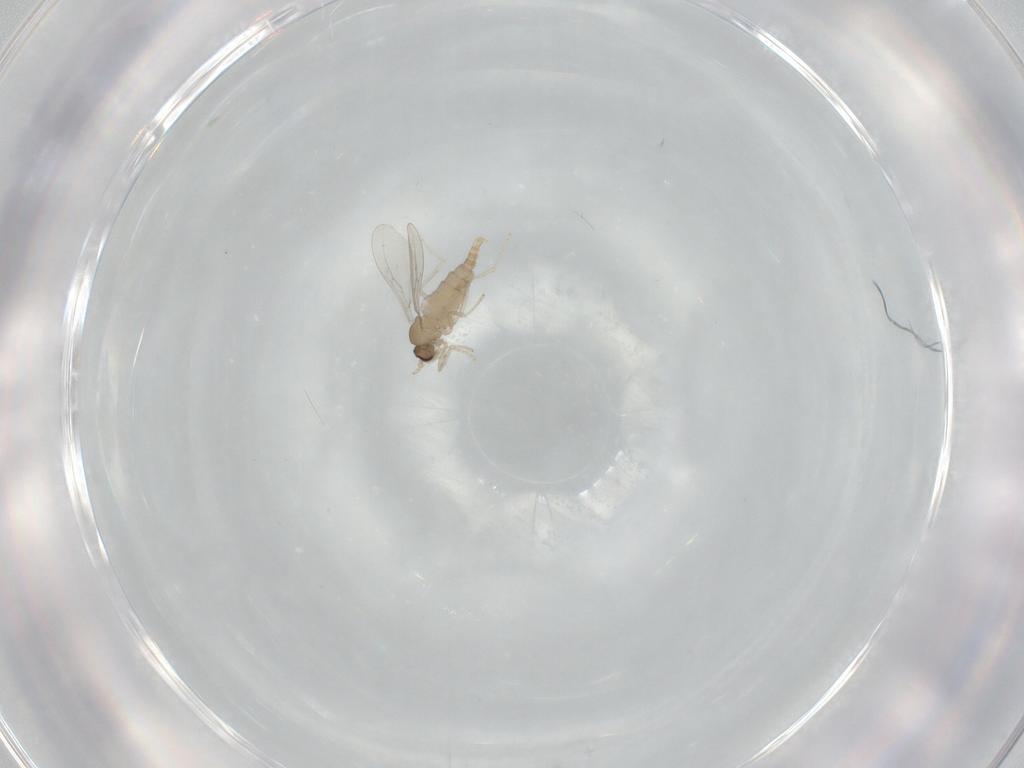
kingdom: Animalia
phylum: Arthropoda
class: Insecta
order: Diptera
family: Cecidomyiidae
